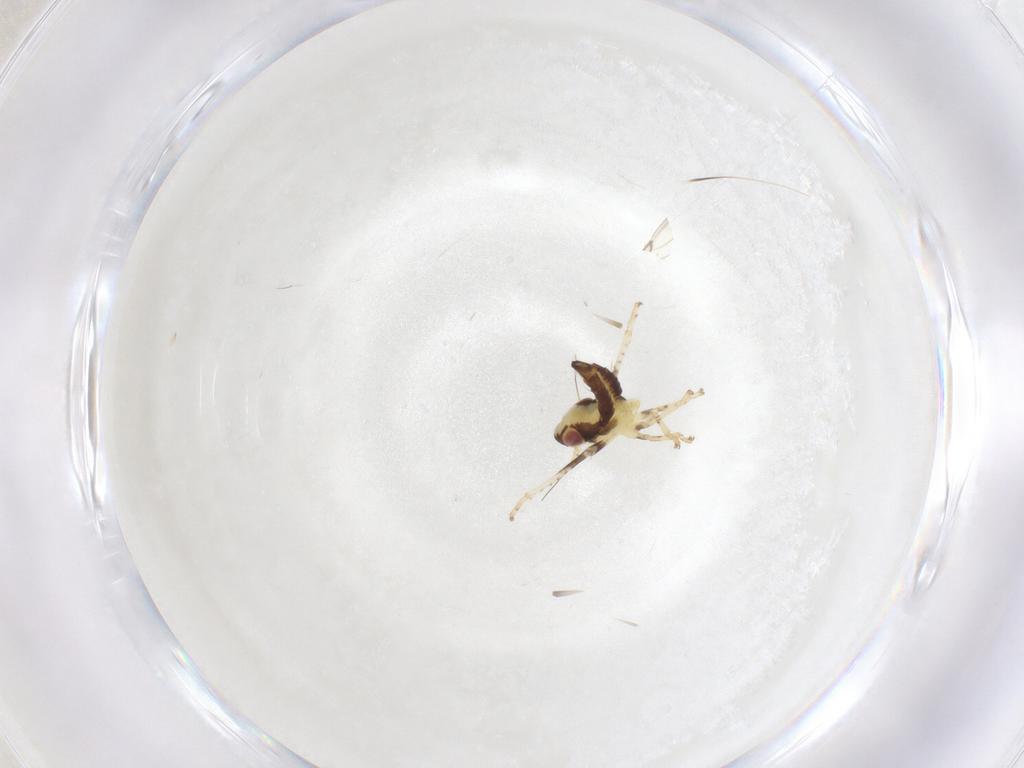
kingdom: Animalia
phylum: Arthropoda
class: Insecta
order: Hemiptera
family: Cicadellidae
